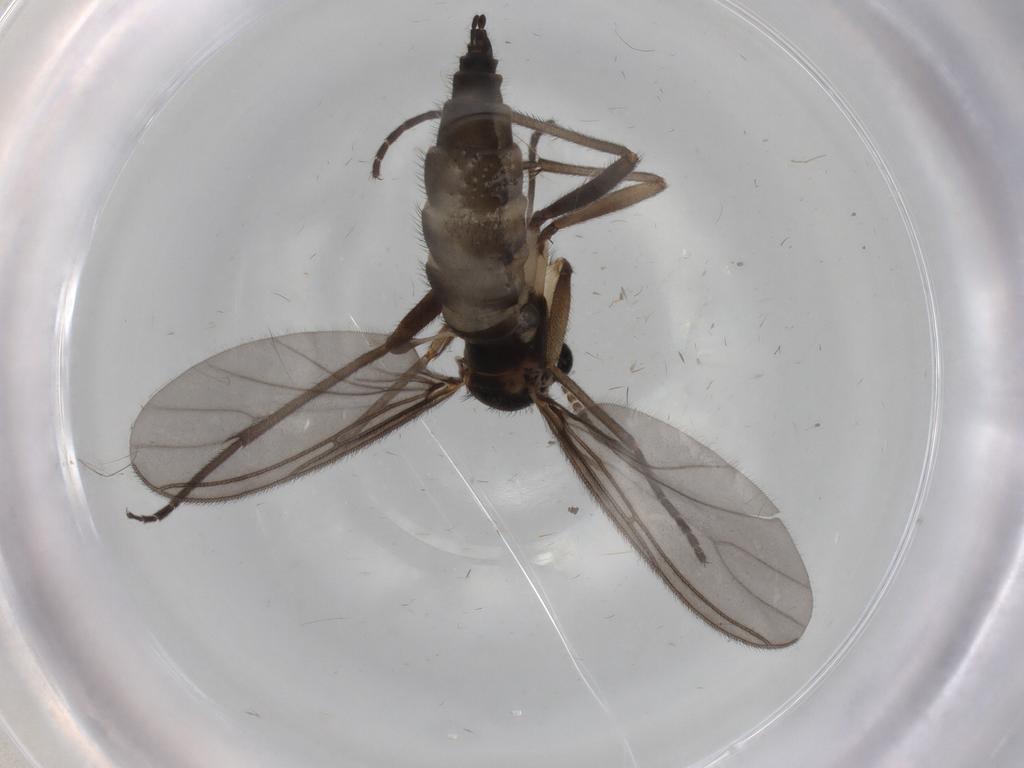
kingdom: Animalia
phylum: Arthropoda
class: Insecta
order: Diptera
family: Sciaridae
